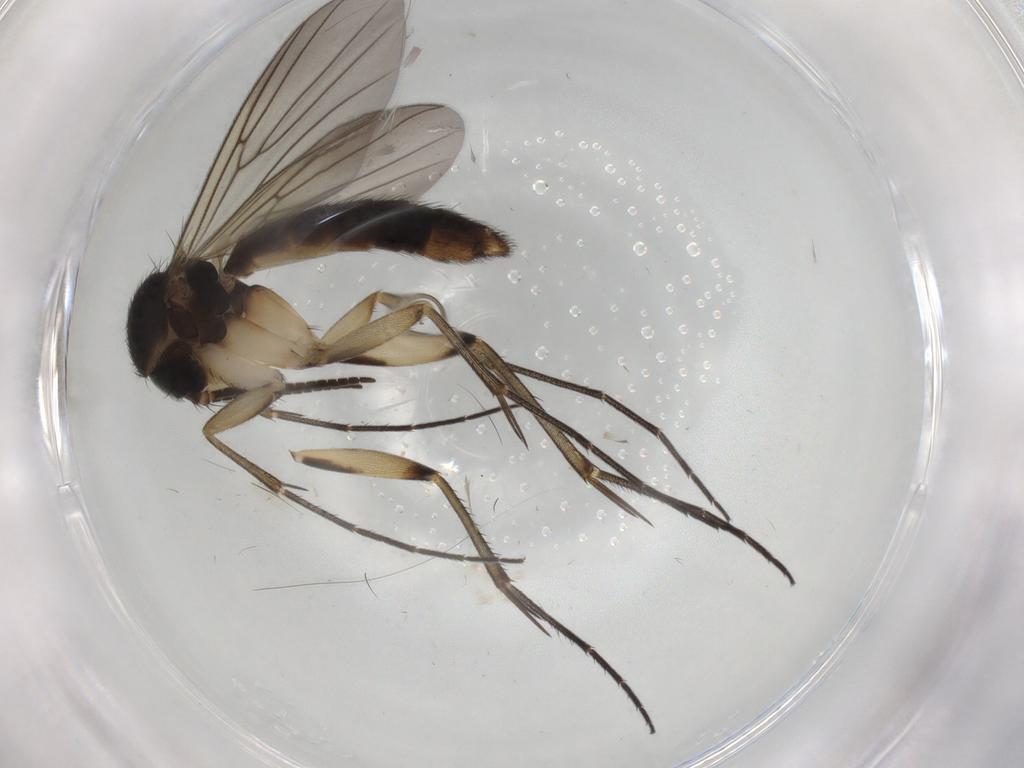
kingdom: Animalia
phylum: Arthropoda
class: Insecta
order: Diptera
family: Mycetophilidae
